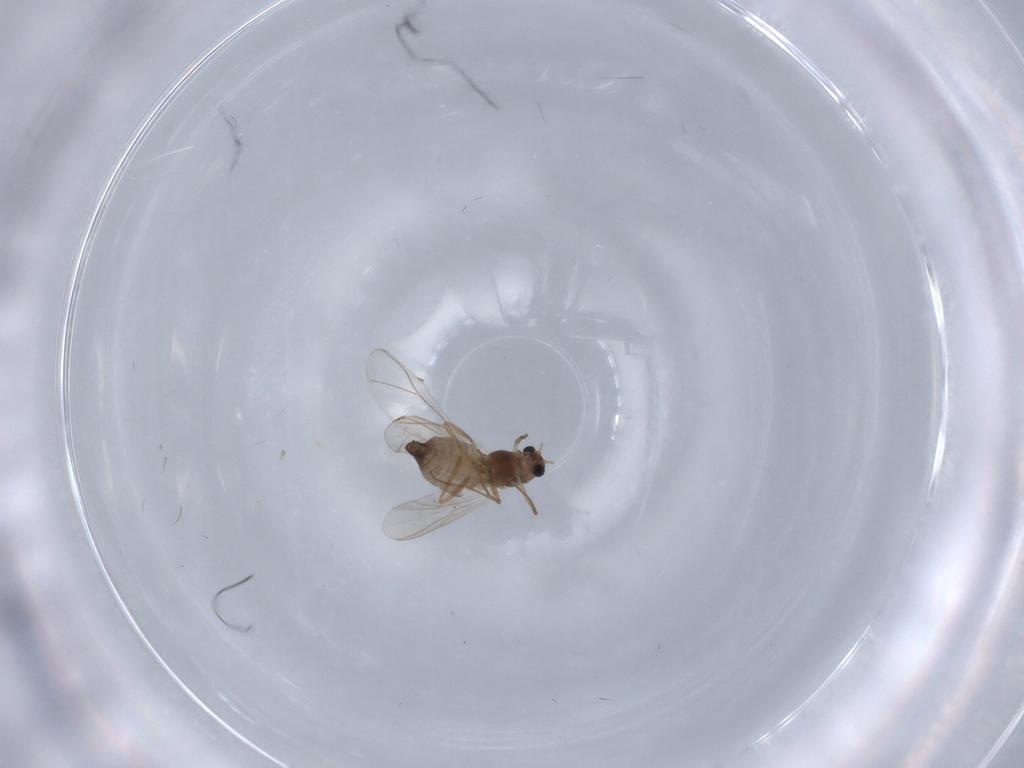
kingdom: Animalia
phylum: Arthropoda
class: Insecta
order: Diptera
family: Chironomidae
